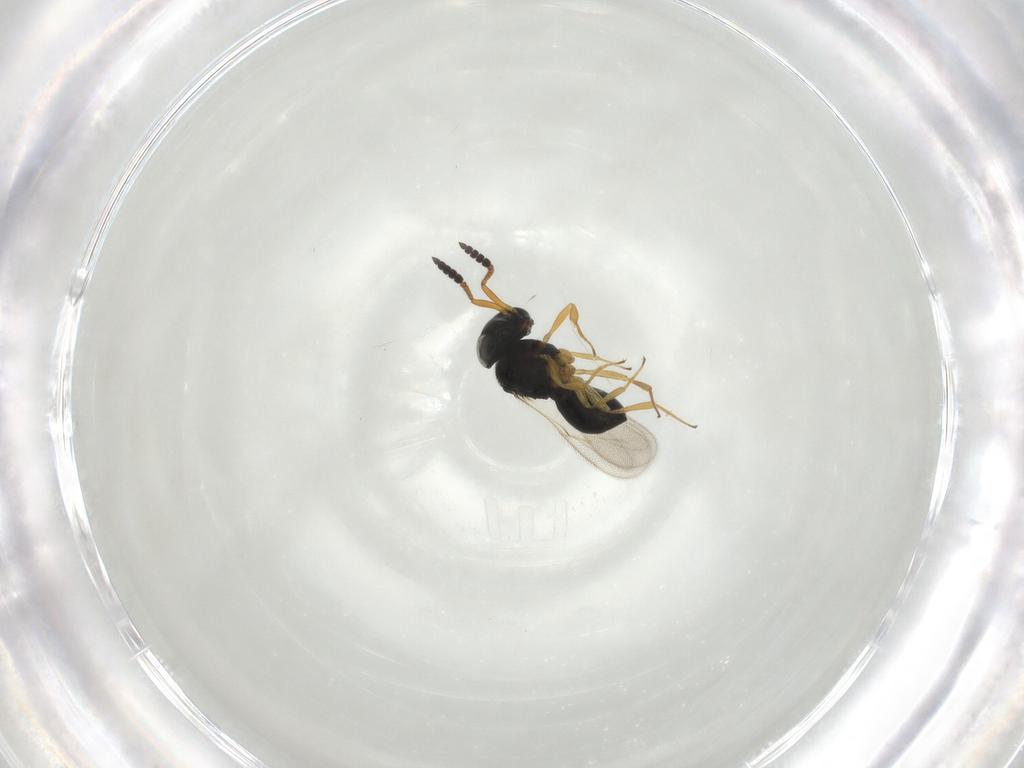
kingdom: Animalia
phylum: Arthropoda
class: Insecta
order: Hymenoptera
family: Scelionidae
